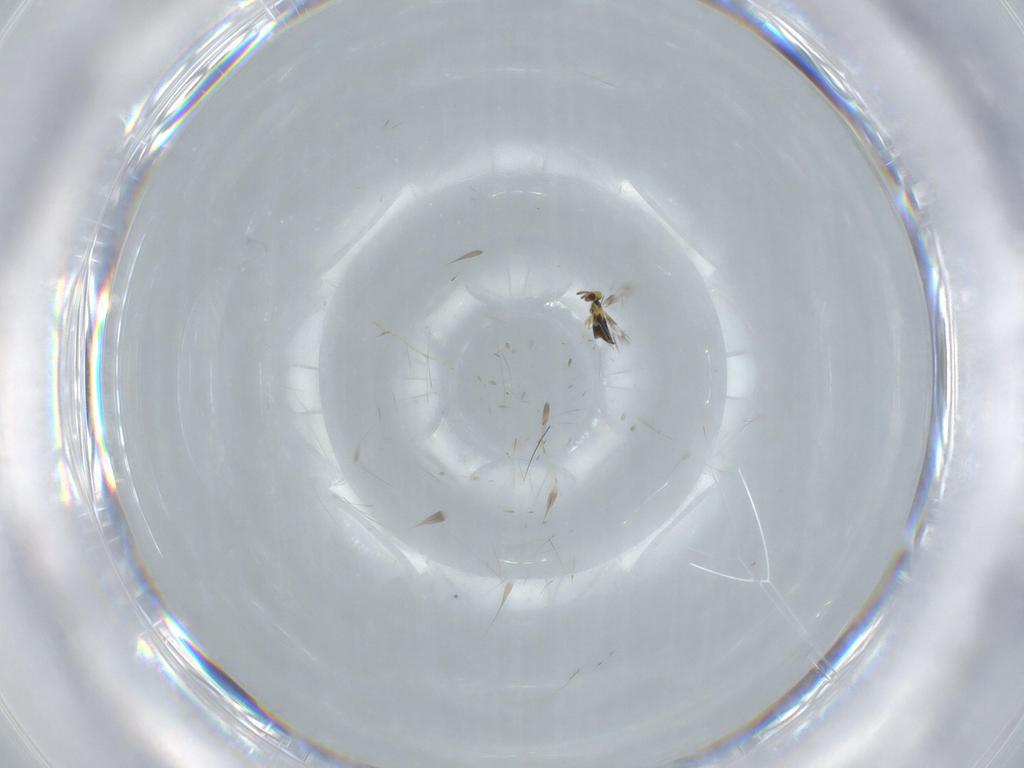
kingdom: Animalia
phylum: Arthropoda
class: Insecta
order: Hymenoptera
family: Signiphoridae
